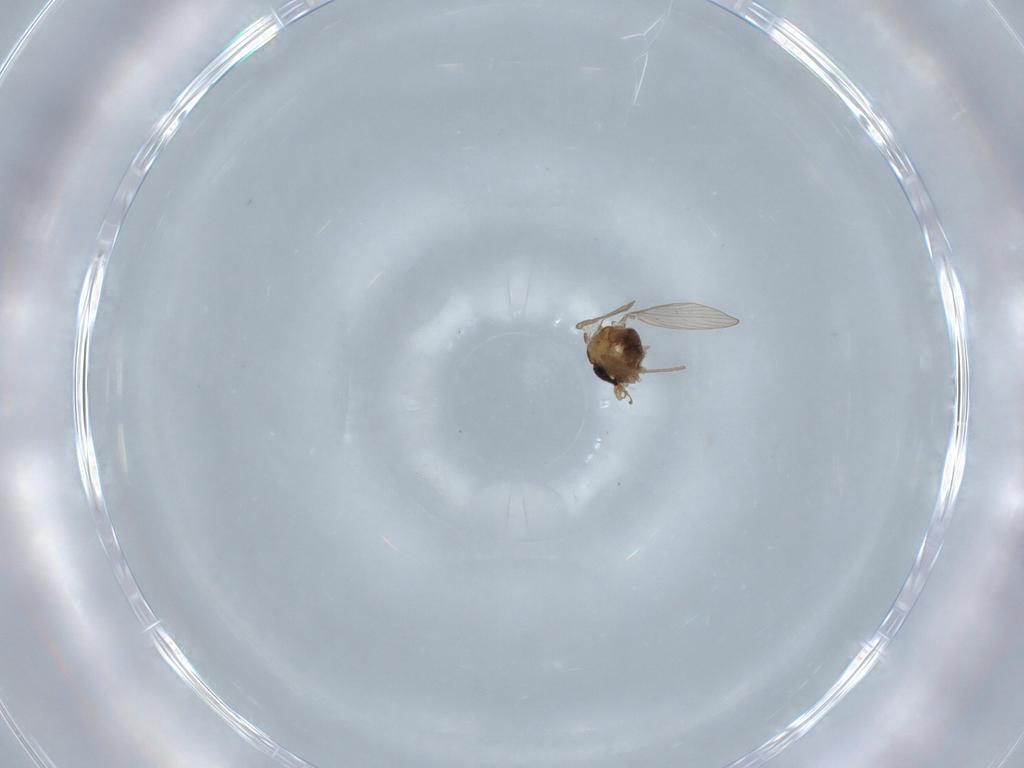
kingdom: Animalia
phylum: Arthropoda
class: Insecta
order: Diptera
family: Psychodidae
